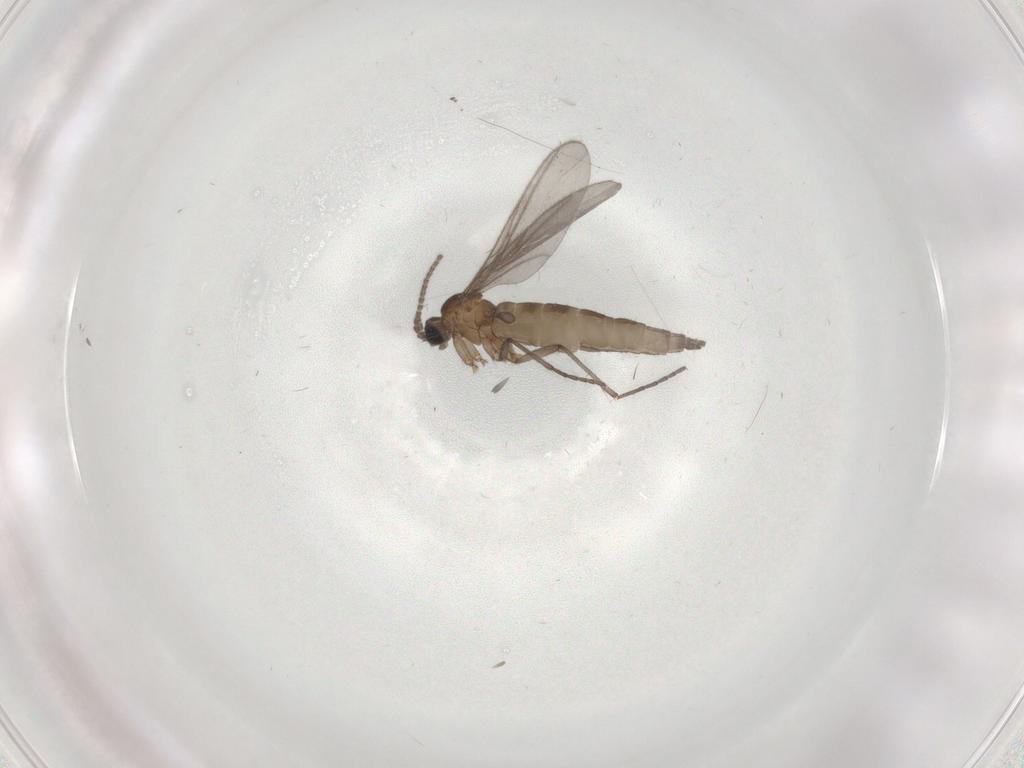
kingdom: Animalia
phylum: Arthropoda
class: Insecta
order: Diptera
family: Sciaridae
